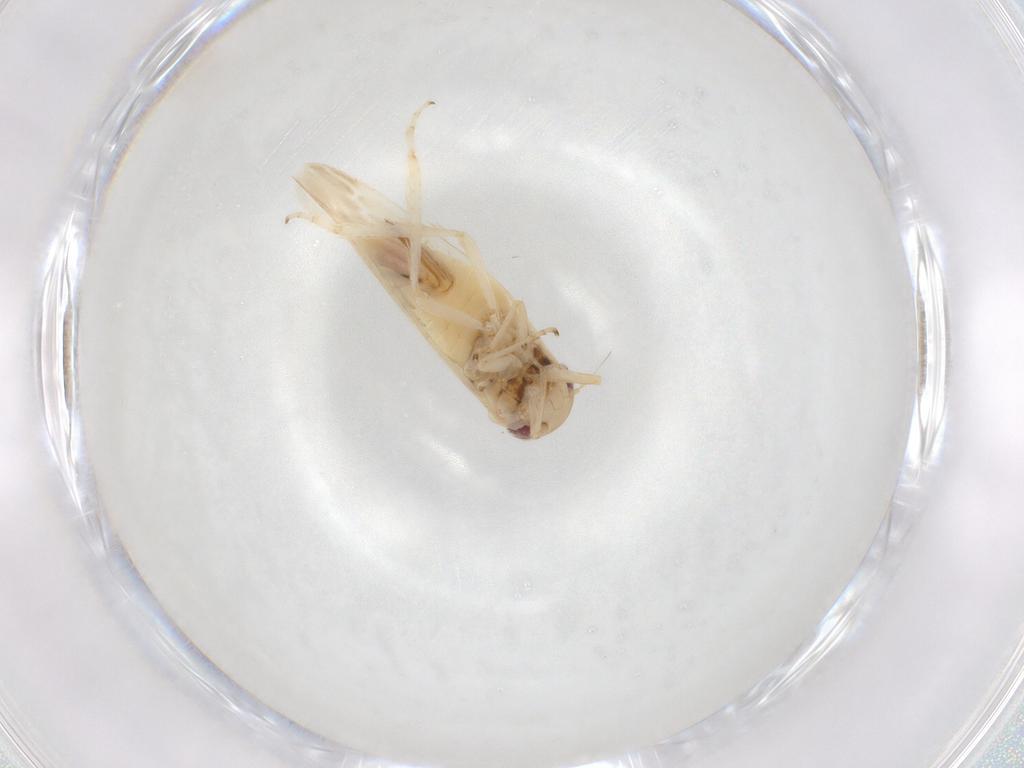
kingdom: Animalia
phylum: Arthropoda
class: Insecta
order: Hemiptera
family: Cicadellidae
